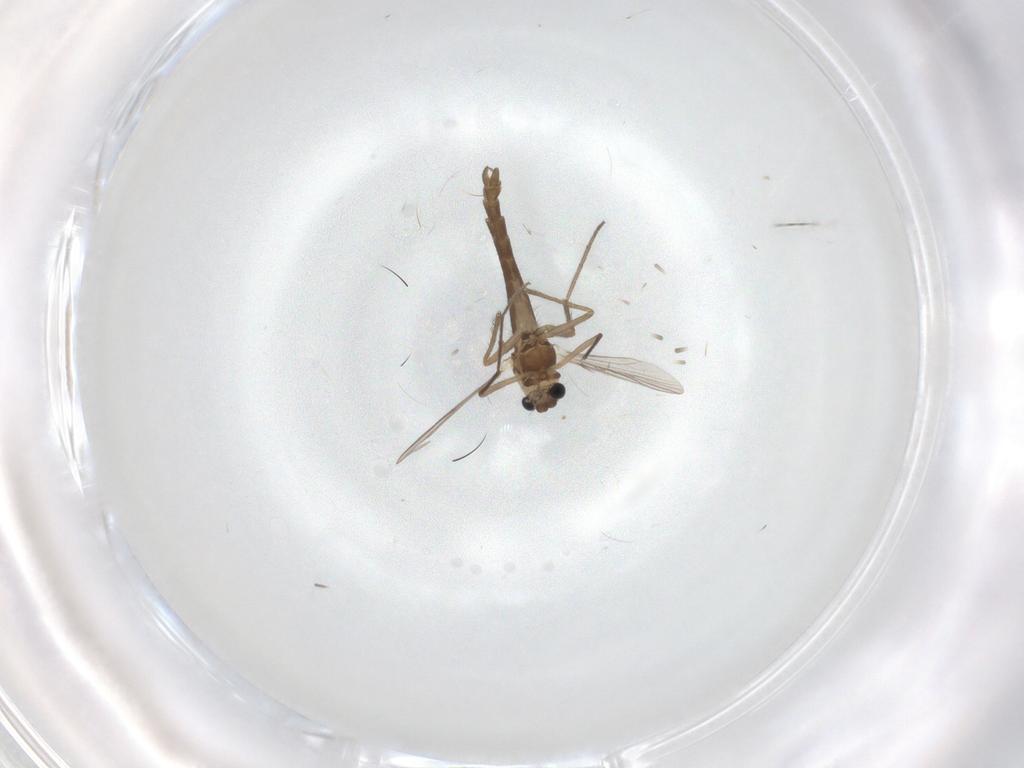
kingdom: Animalia
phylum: Arthropoda
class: Insecta
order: Diptera
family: Chironomidae
